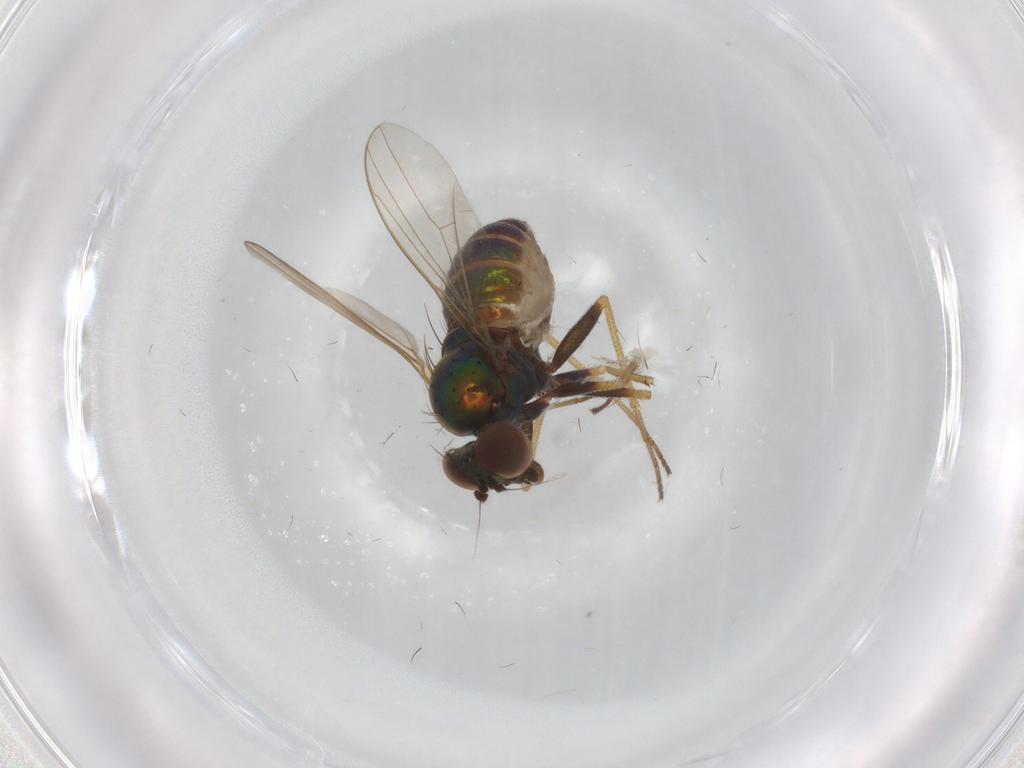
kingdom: Animalia
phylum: Arthropoda
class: Insecta
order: Diptera
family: Dolichopodidae
